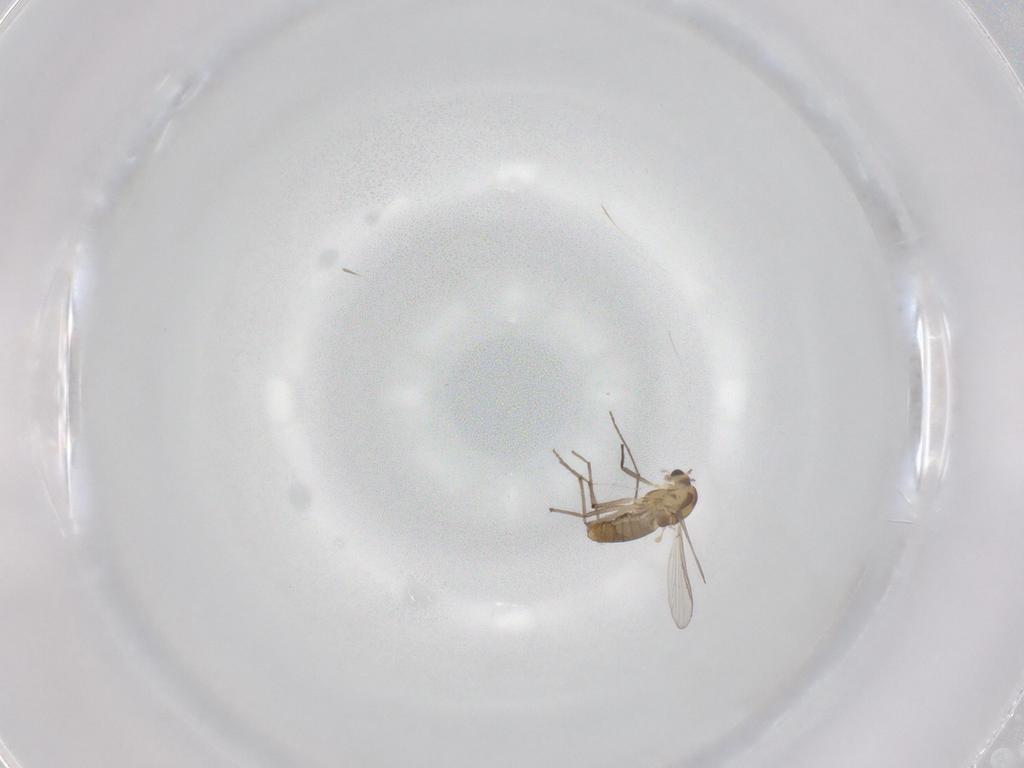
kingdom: Animalia
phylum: Arthropoda
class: Insecta
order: Diptera
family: Chironomidae
